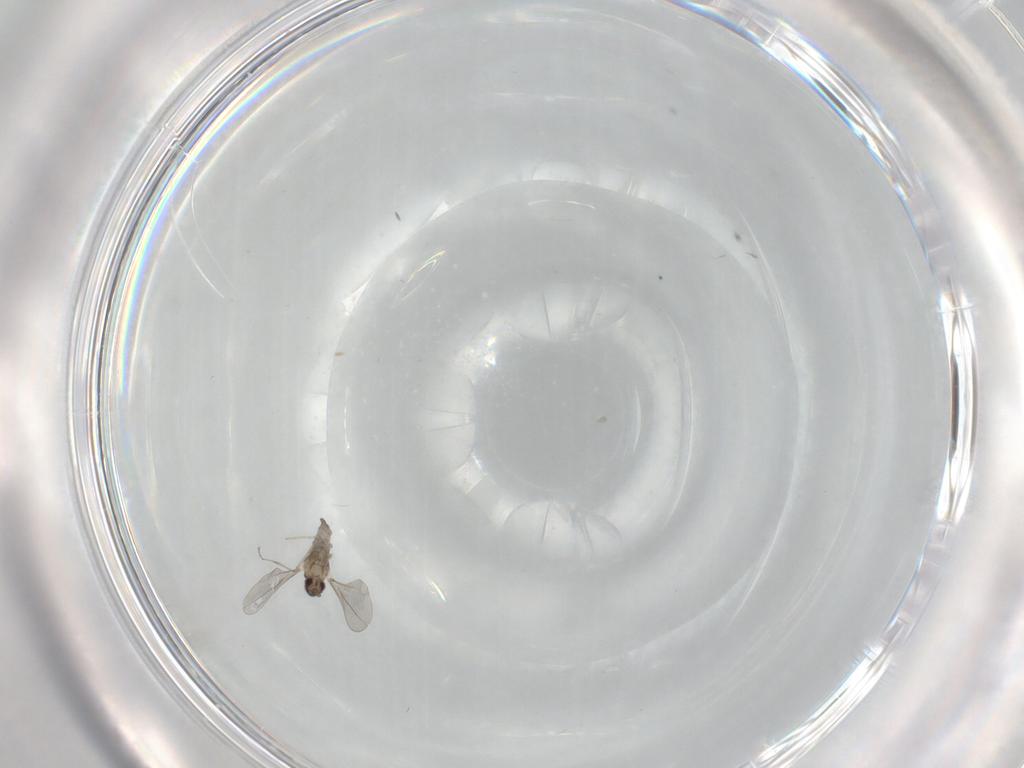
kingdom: Animalia
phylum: Arthropoda
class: Insecta
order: Diptera
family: Cecidomyiidae
